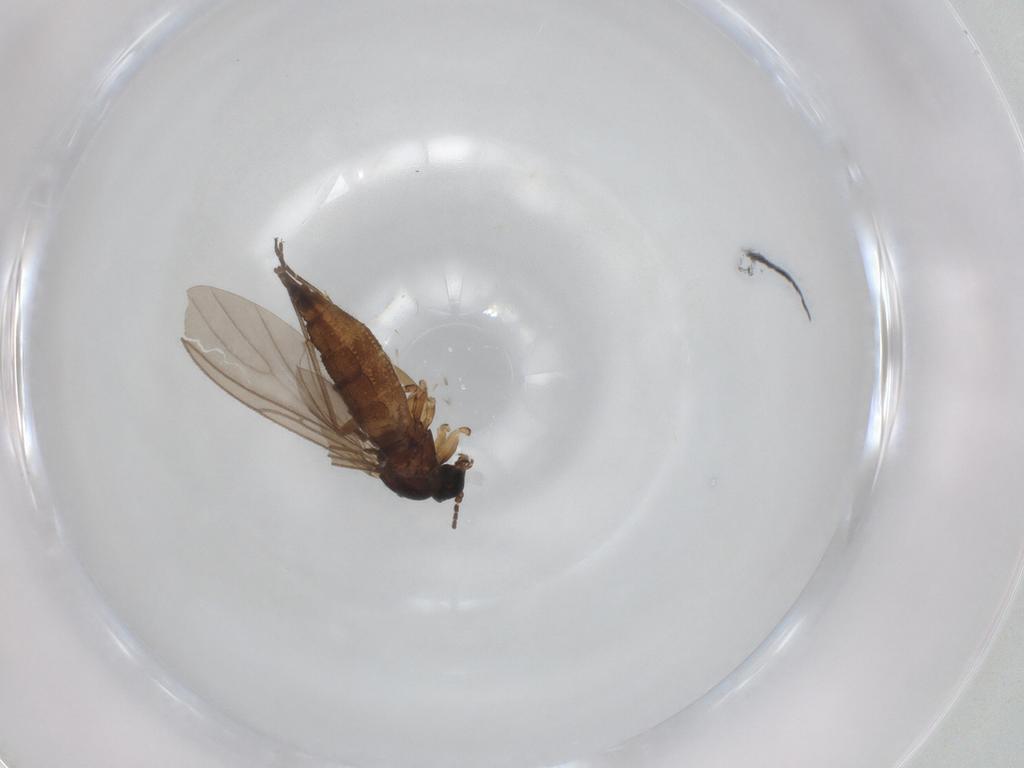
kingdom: Animalia
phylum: Arthropoda
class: Insecta
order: Diptera
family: Sciaridae
